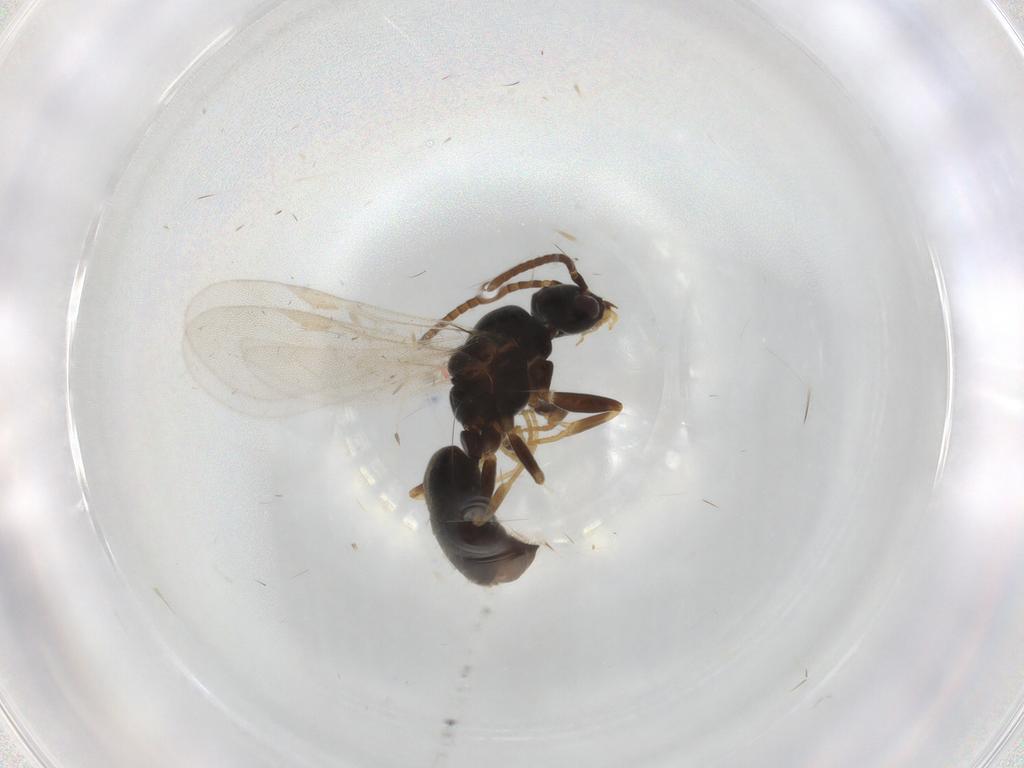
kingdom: Animalia
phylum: Arthropoda
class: Insecta
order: Hymenoptera
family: Formicidae
